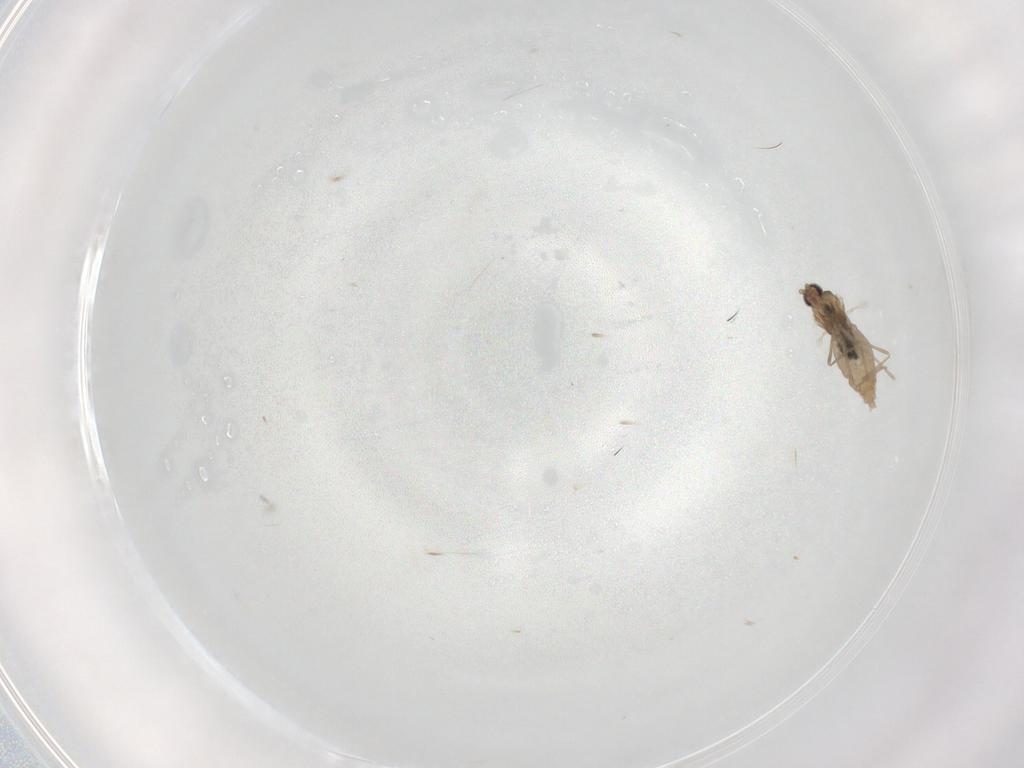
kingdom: Animalia
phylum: Arthropoda
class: Insecta
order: Diptera
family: Cecidomyiidae
